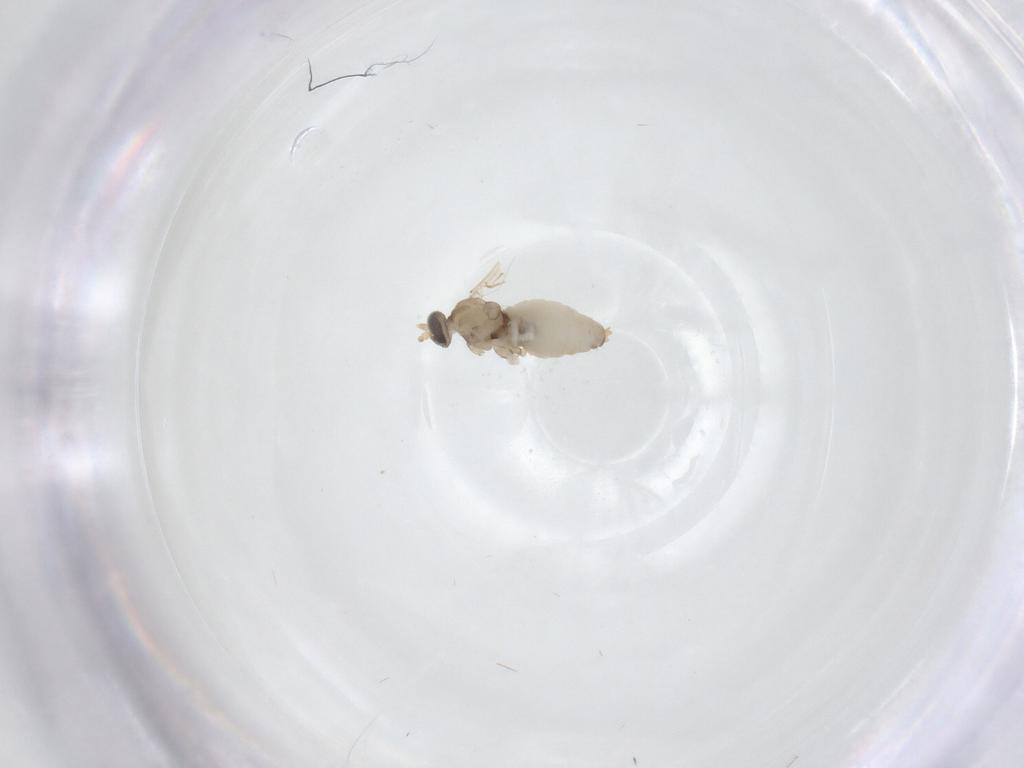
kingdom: Animalia
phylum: Arthropoda
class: Insecta
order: Diptera
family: Cecidomyiidae
